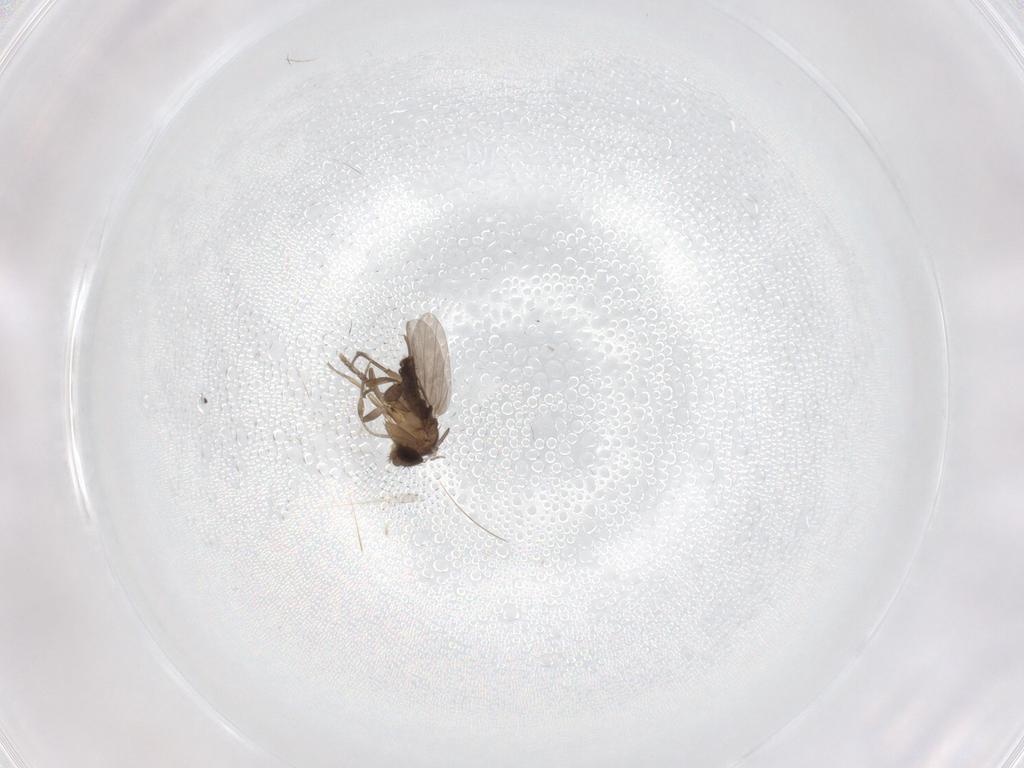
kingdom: Animalia
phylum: Arthropoda
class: Insecta
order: Diptera
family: Phoridae
